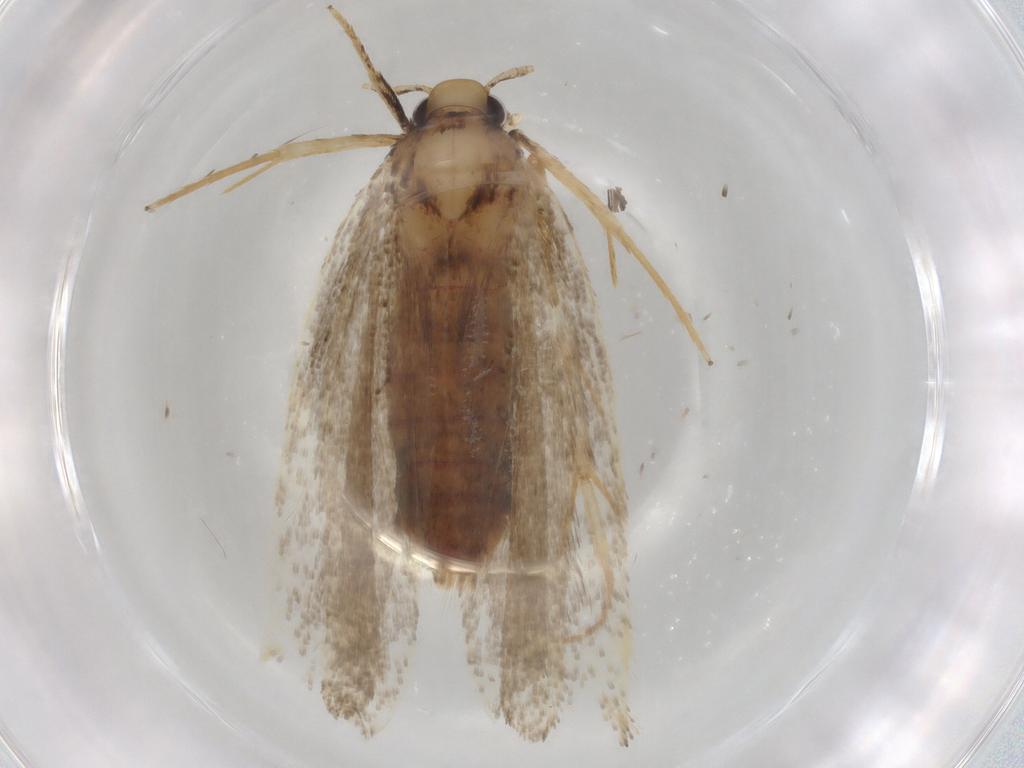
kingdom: Animalia
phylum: Arthropoda
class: Insecta
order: Lepidoptera
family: Lecithoceridae
